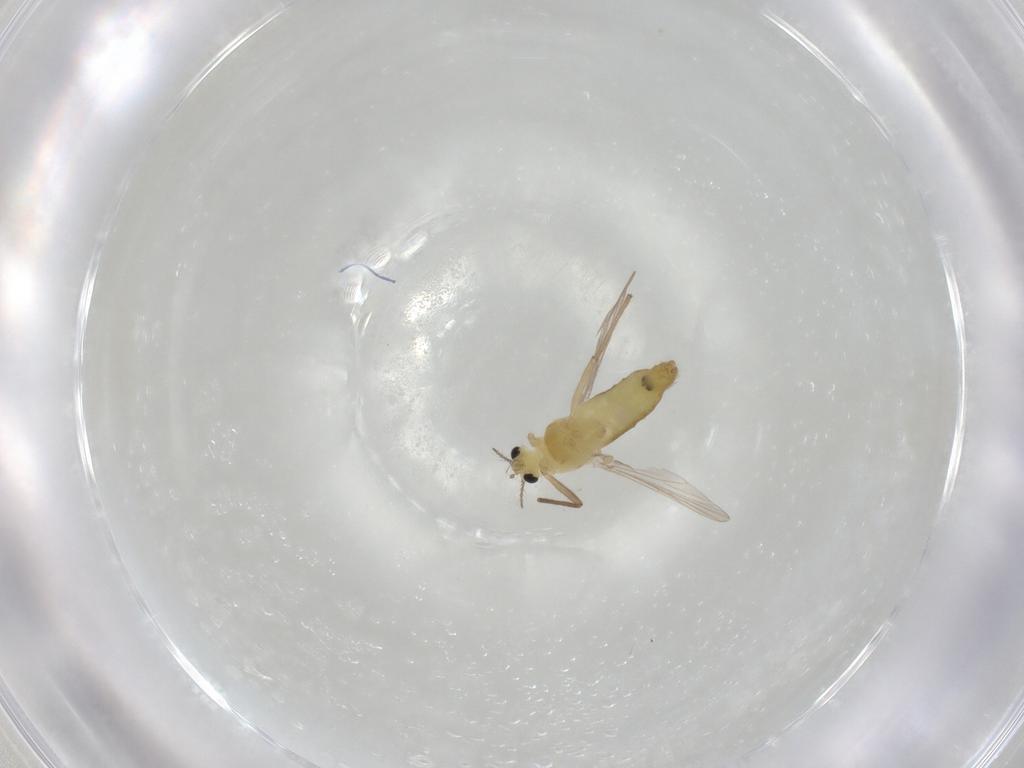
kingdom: Animalia
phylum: Arthropoda
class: Insecta
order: Diptera
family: Chironomidae
